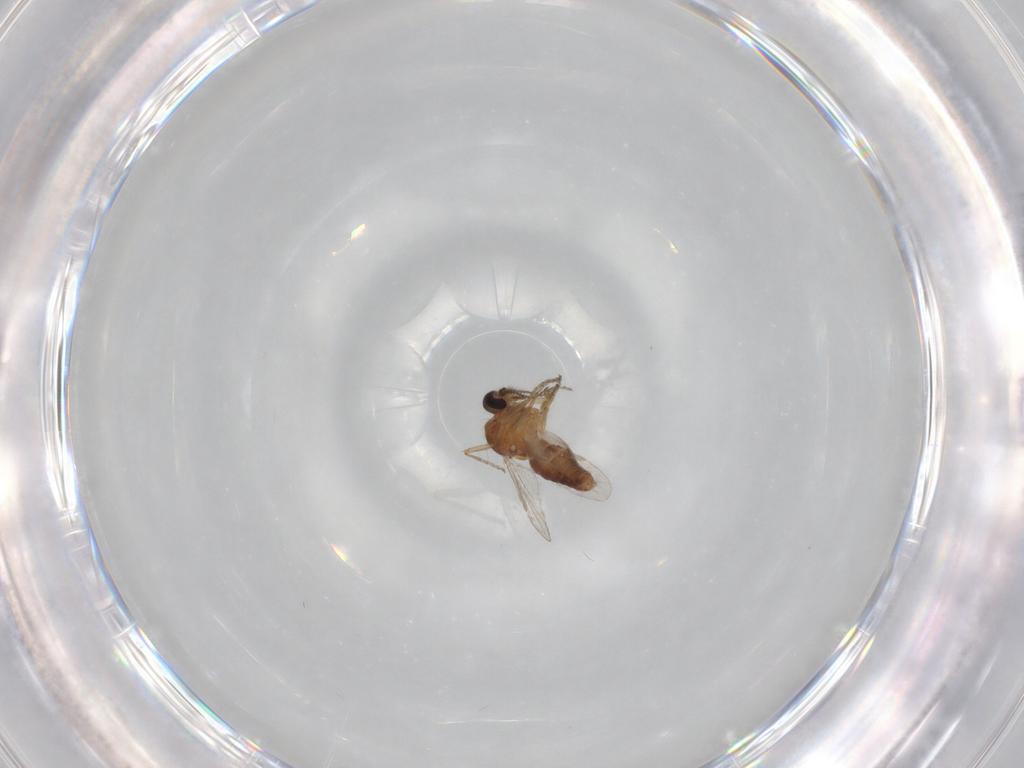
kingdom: Animalia
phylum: Arthropoda
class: Insecta
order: Diptera
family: Ceratopogonidae
